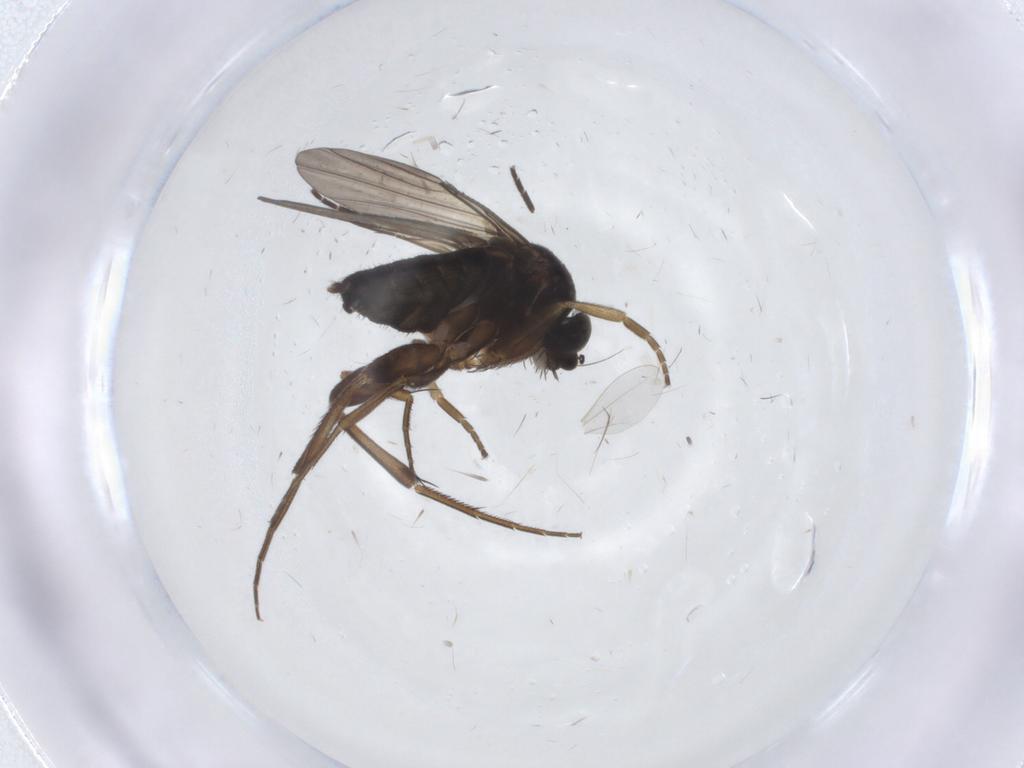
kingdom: Animalia
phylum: Arthropoda
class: Insecta
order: Diptera
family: Phoridae
